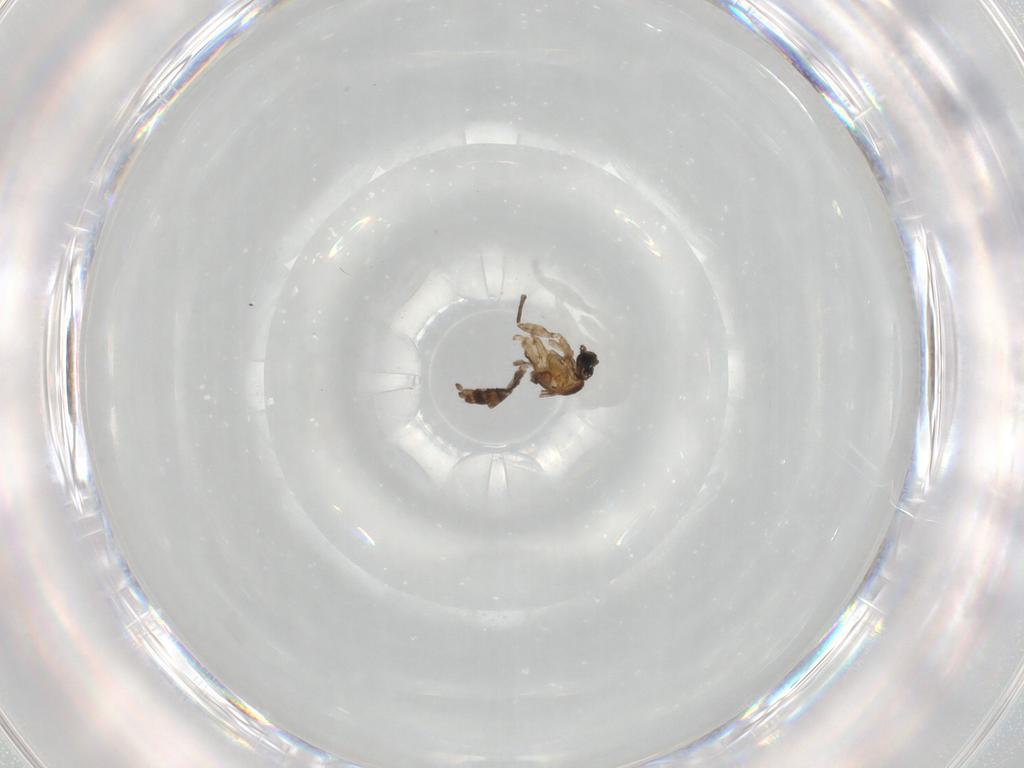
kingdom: Animalia
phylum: Arthropoda
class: Insecta
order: Diptera
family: Cecidomyiidae
